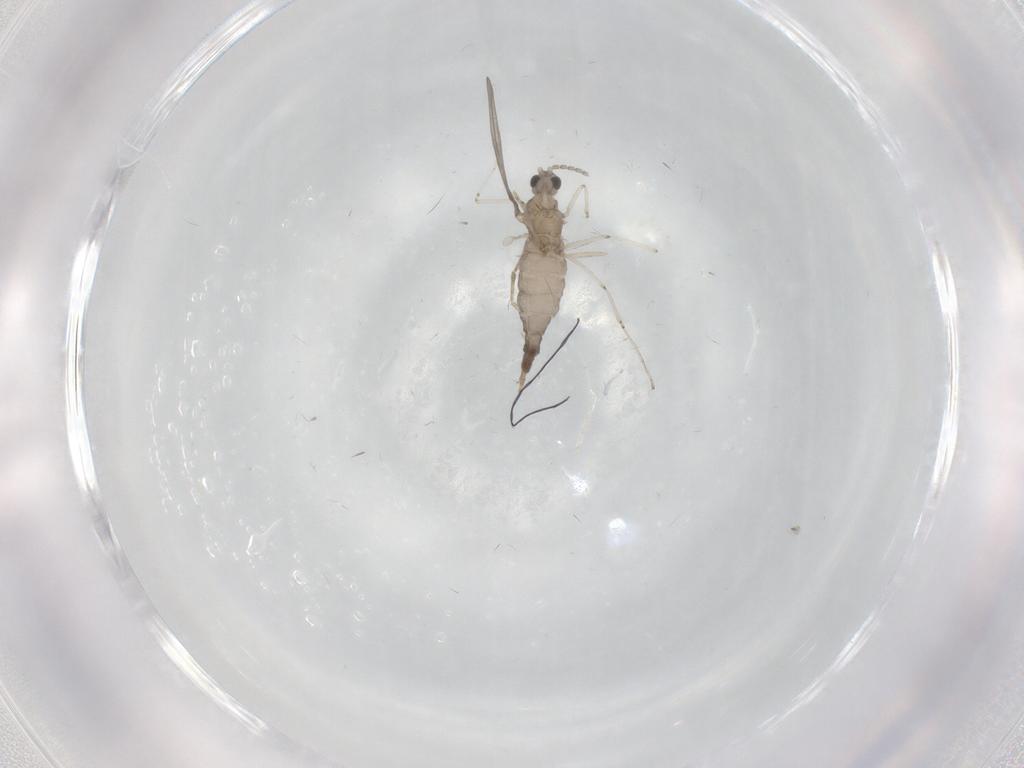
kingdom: Animalia
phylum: Arthropoda
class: Insecta
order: Diptera
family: Cecidomyiidae
